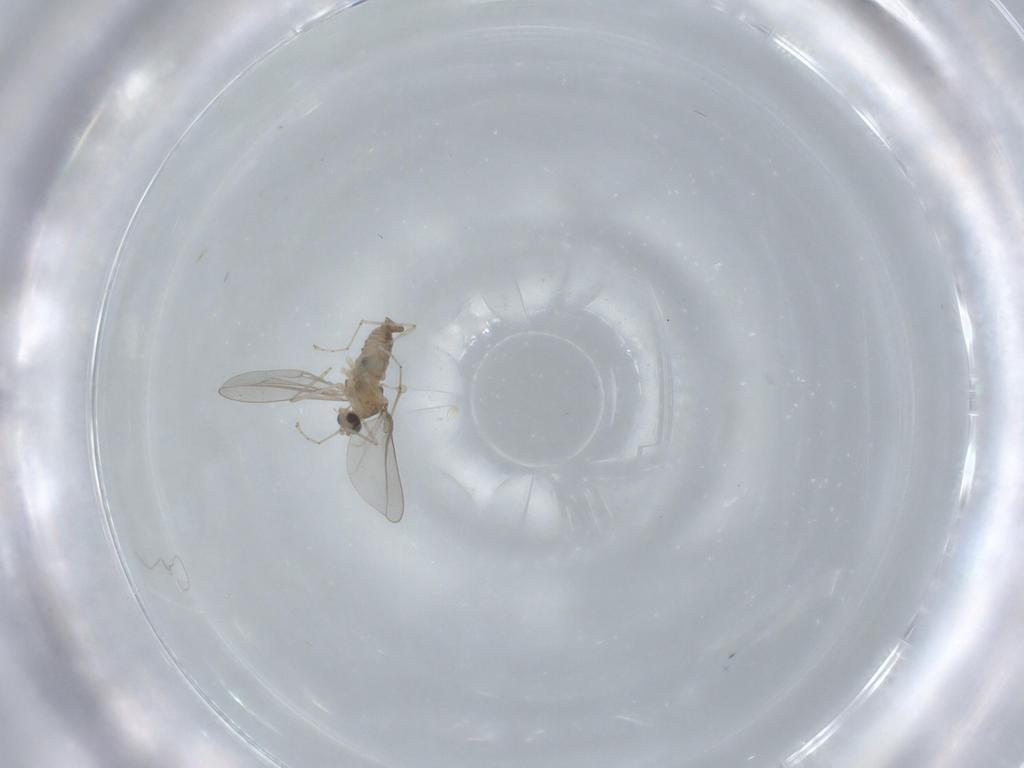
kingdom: Animalia
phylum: Arthropoda
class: Insecta
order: Diptera
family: Cecidomyiidae
